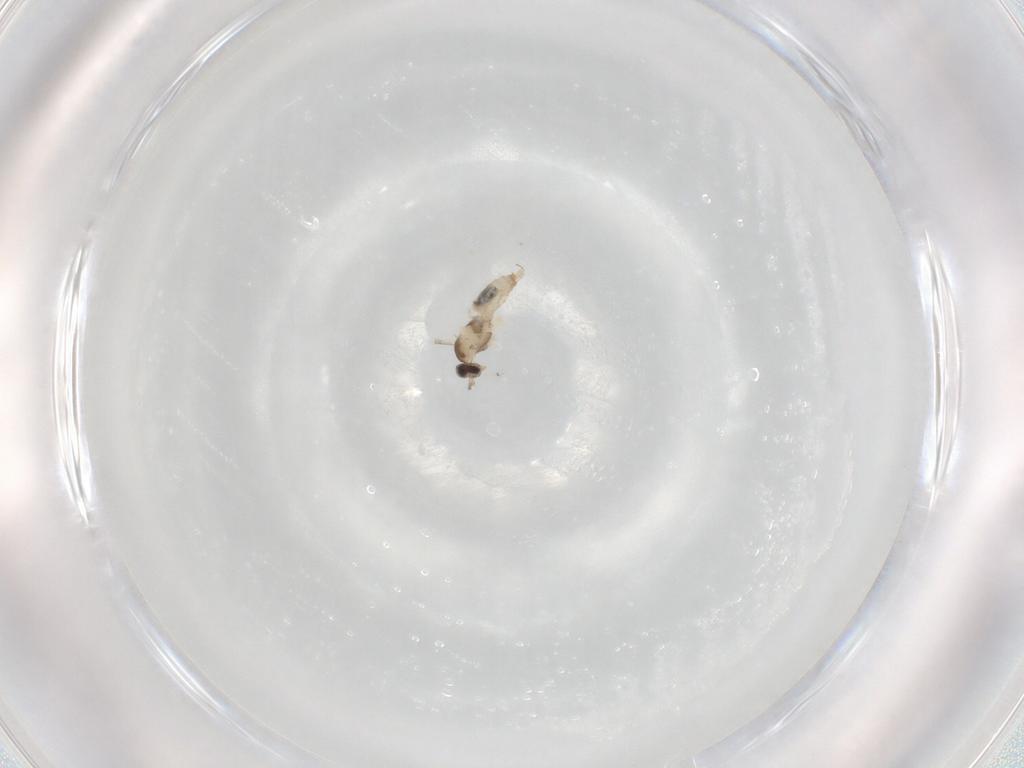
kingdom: Animalia
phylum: Arthropoda
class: Insecta
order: Diptera
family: Cecidomyiidae
